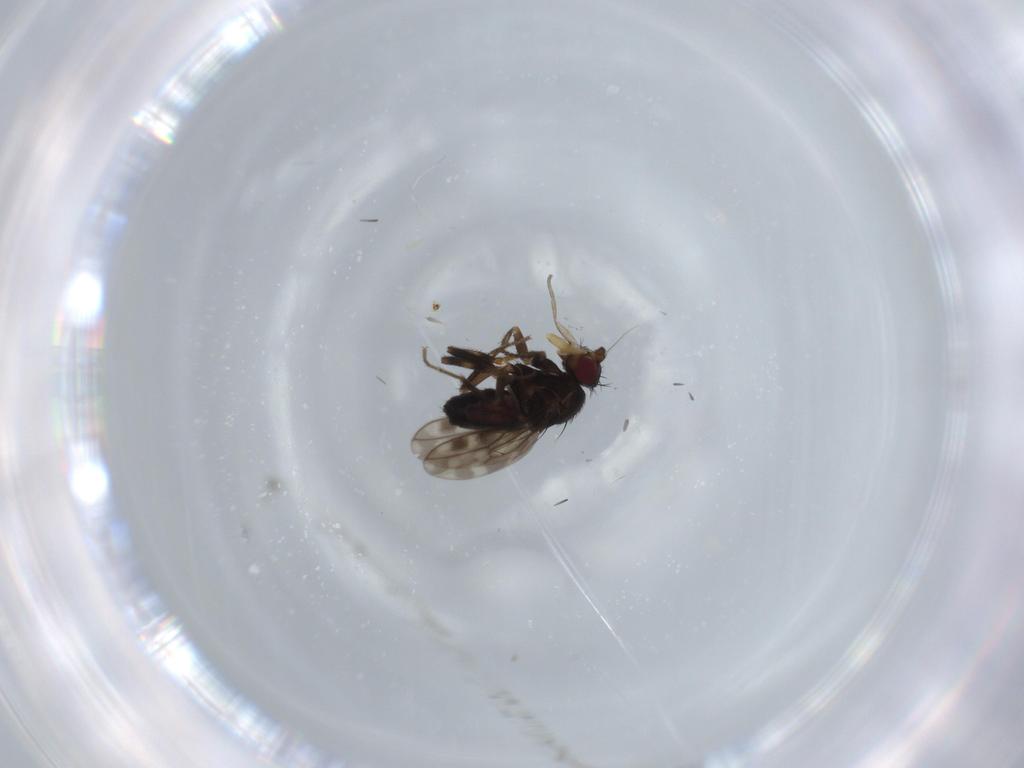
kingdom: Animalia
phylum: Arthropoda
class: Insecta
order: Diptera
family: Sphaeroceridae
